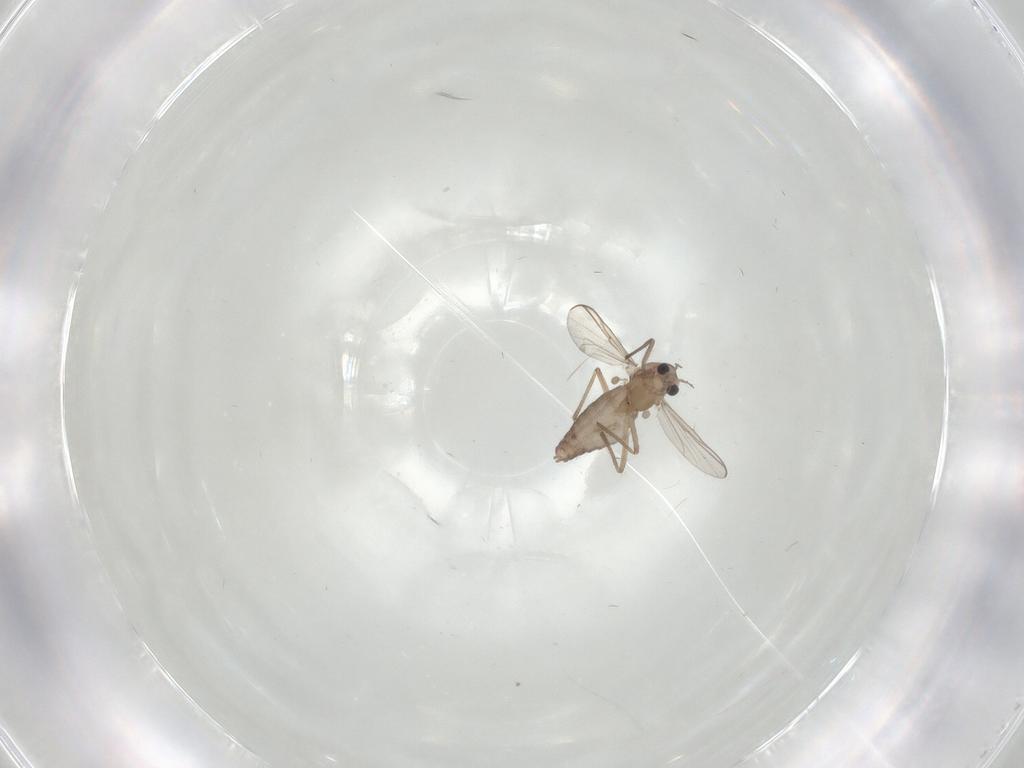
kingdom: Animalia
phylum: Arthropoda
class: Insecta
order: Diptera
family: Chironomidae
